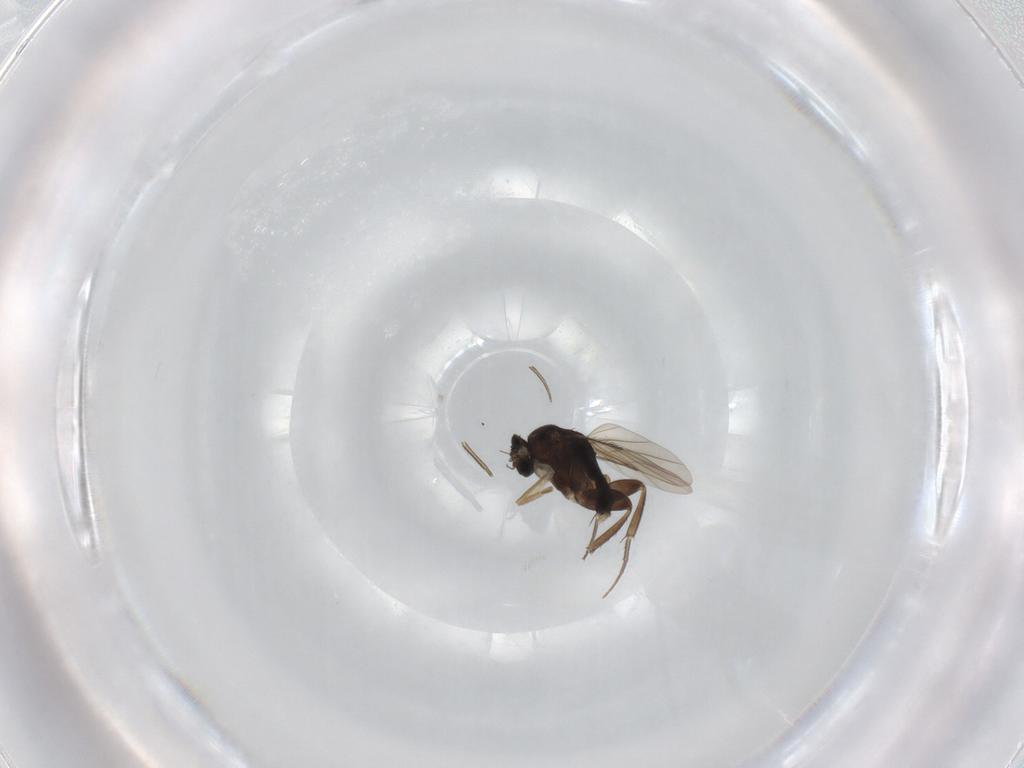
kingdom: Animalia
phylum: Arthropoda
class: Insecta
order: Diptera
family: Phoridae
